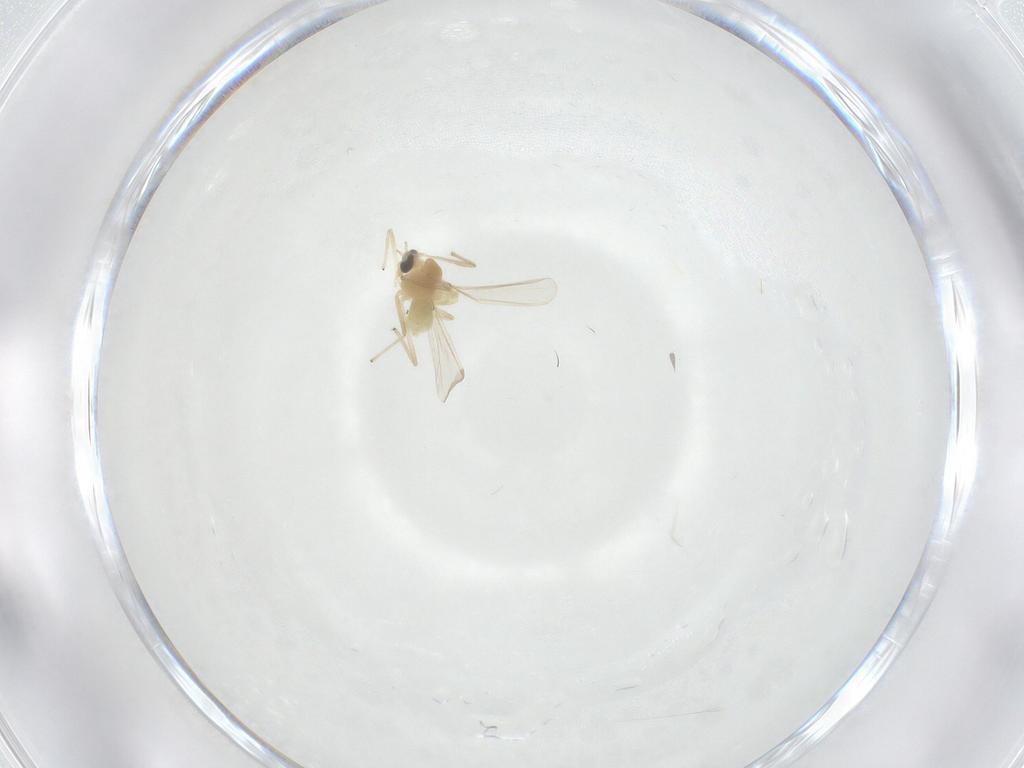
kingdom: Animalia
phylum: Arthropoda
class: Insecta
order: Diptera
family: Chironomidae
